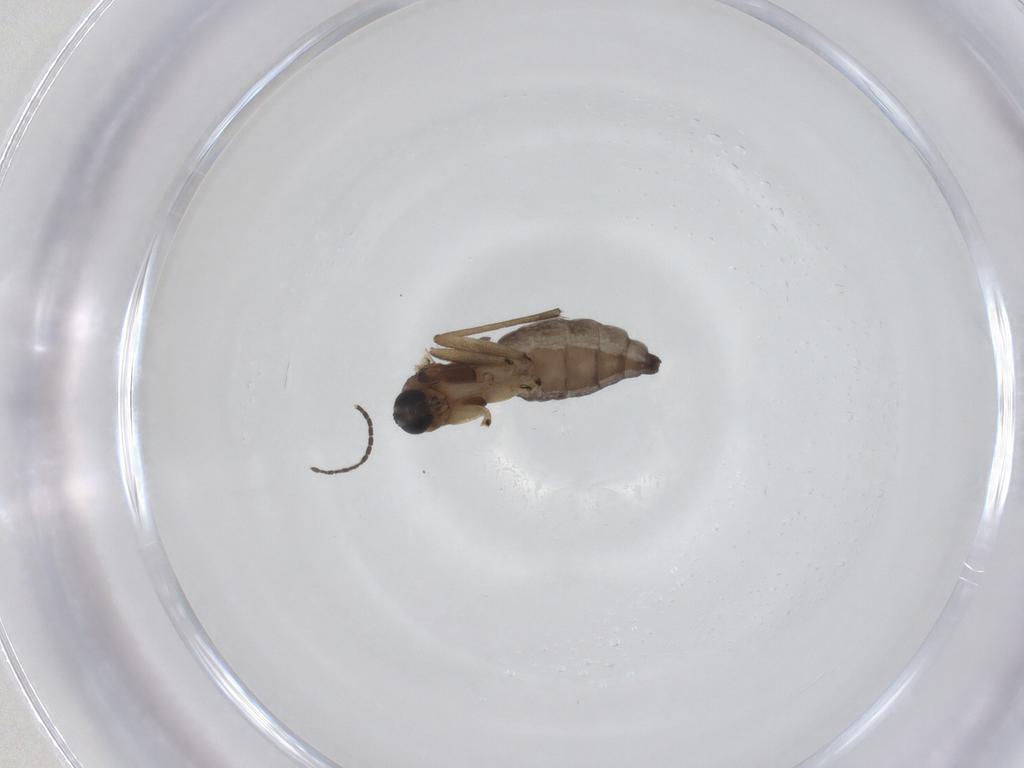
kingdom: Animalia
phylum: Arthropoda
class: Insecta
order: Diptera
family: Sciaridae
